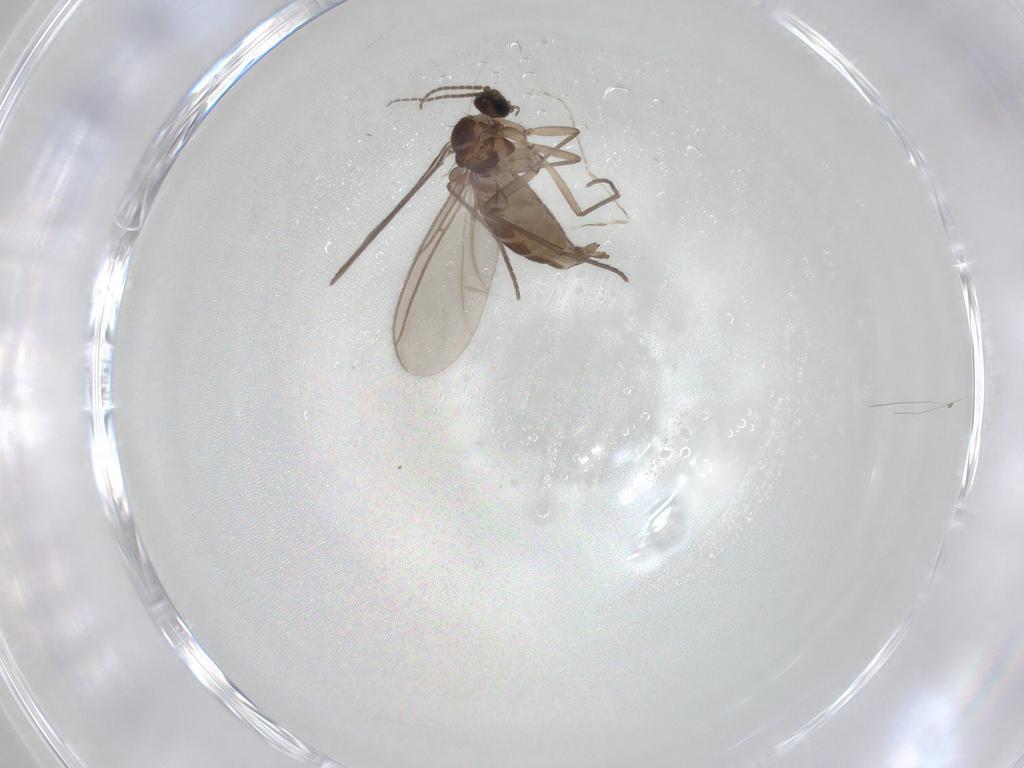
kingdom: Animalia
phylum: Arthropoda
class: Insecta
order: Diptera
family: Sciaridae
